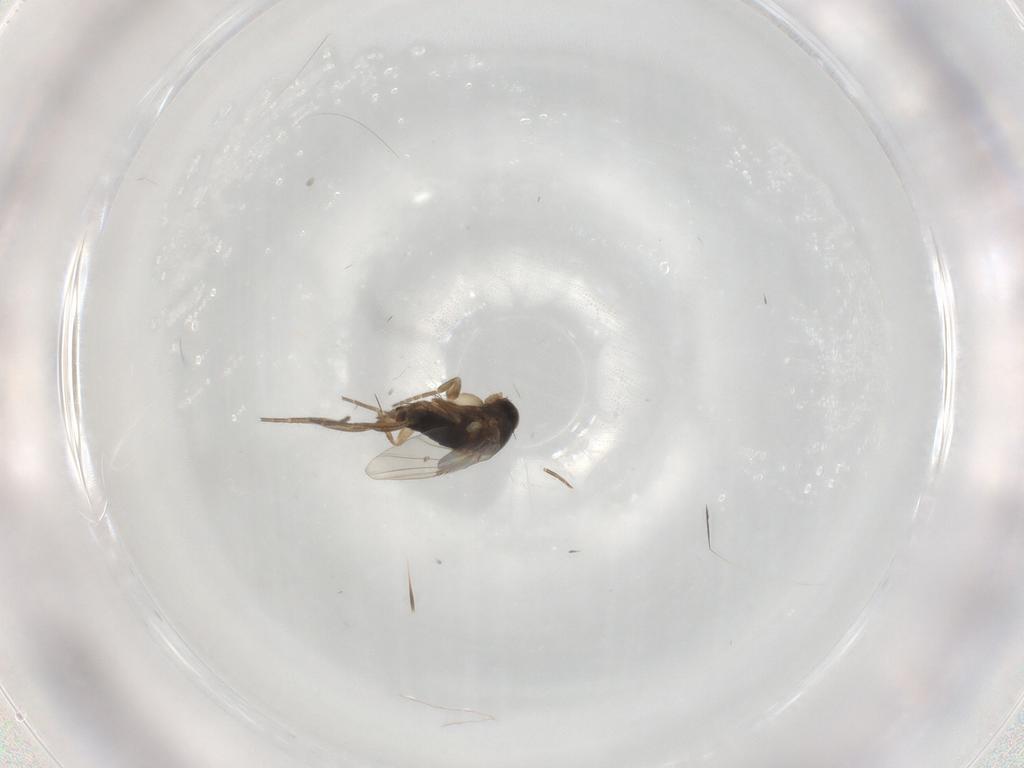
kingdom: Animalia
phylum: Arthropoda
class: Insecta
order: Diptera
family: Phoridae
